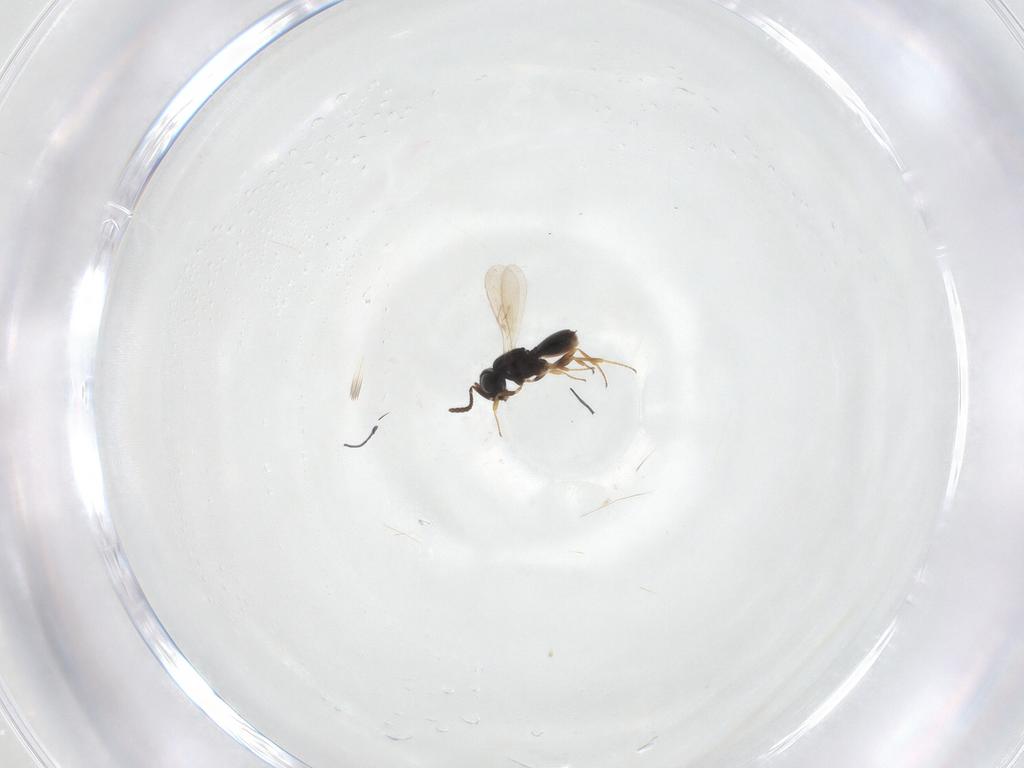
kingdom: Animalia
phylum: Arthropoda
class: Insecta
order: Hymenoptera
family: Scelionidae
